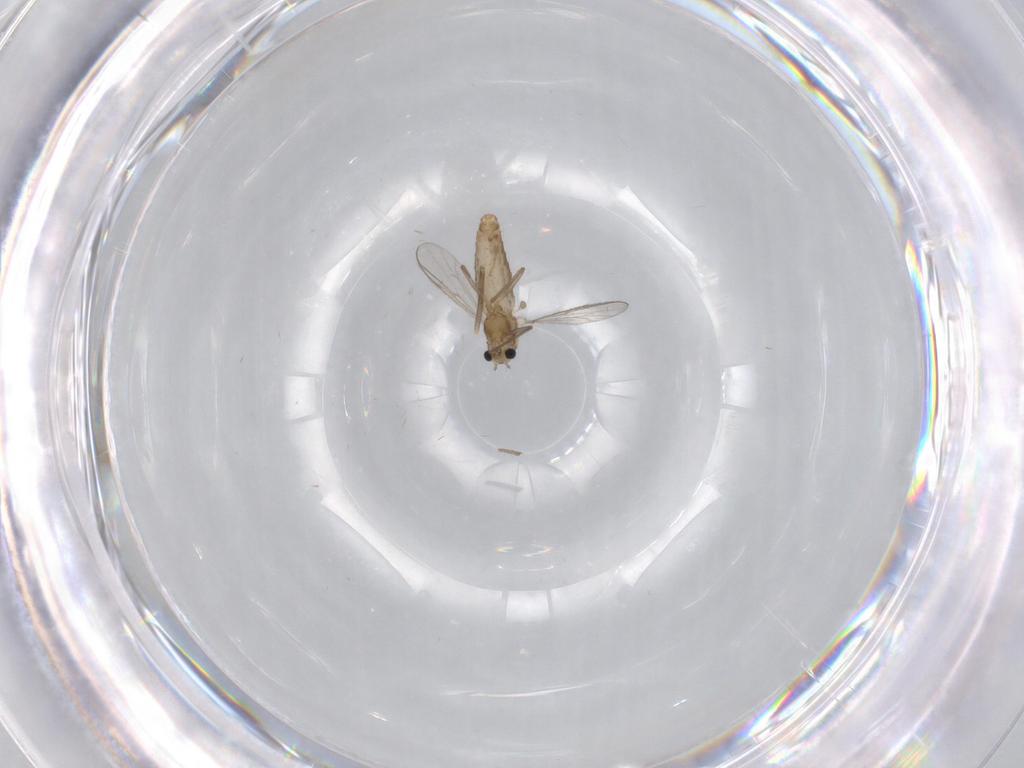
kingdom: Animalia
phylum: Arthropoda
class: Insecta
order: Diptera
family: Chironomidae
